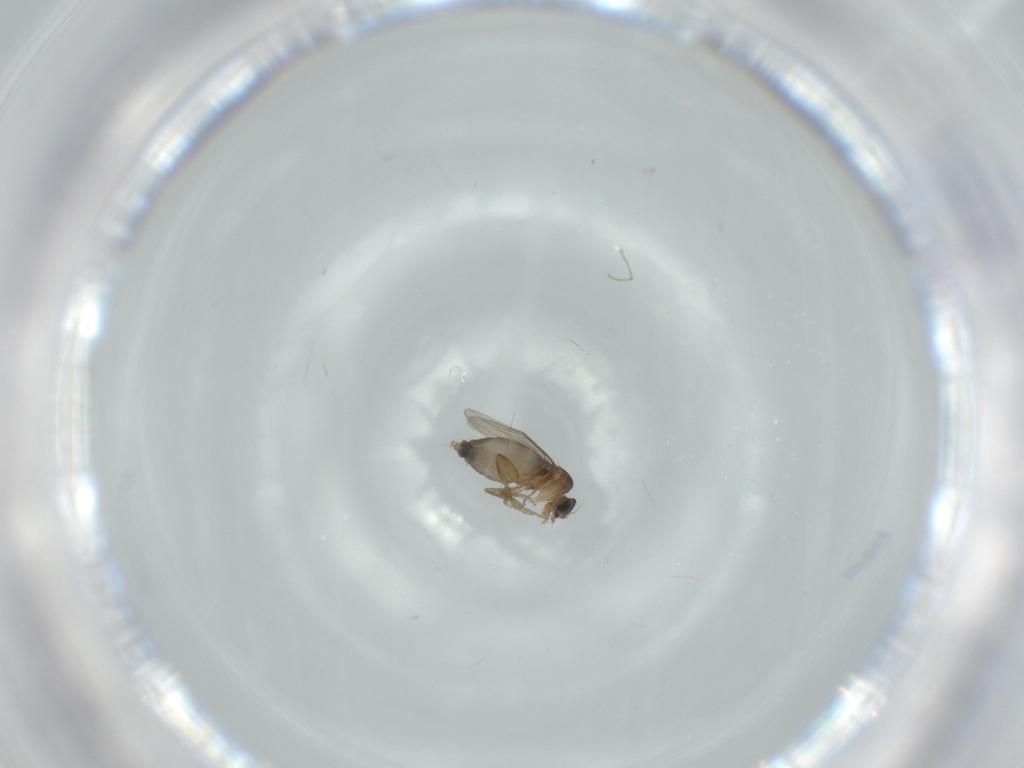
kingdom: Animalia
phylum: Arthropoda
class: Insecta
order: Diptera
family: Phoridae
